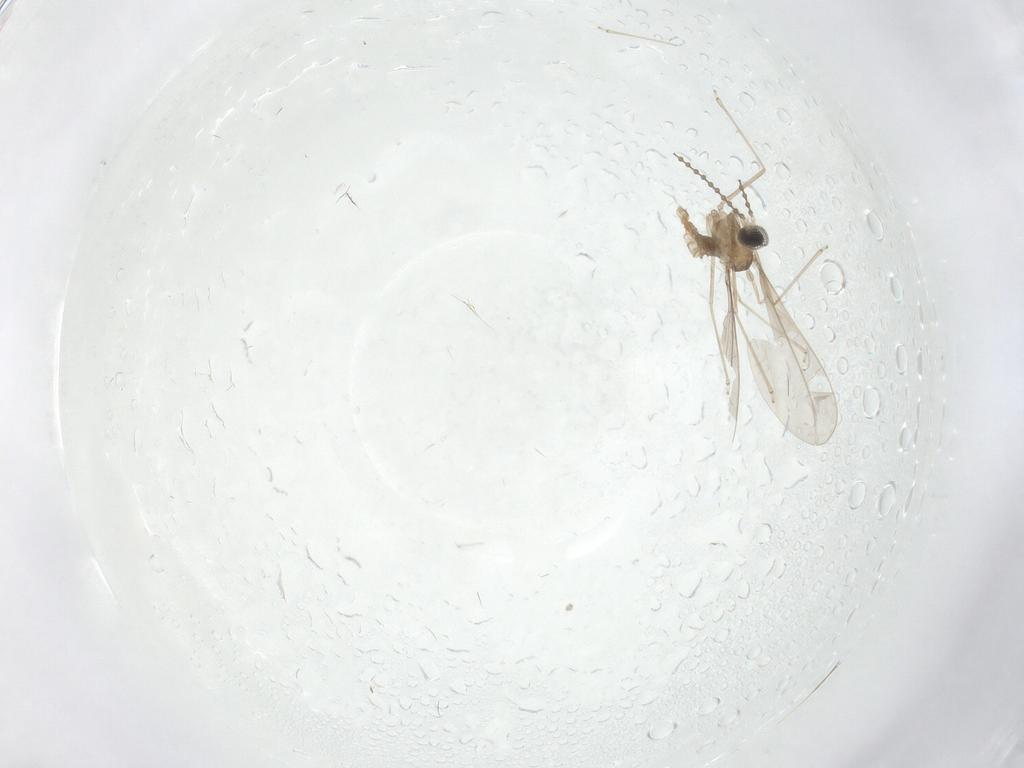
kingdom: Animalia
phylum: Arthropoda
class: Insecta
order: Diptera
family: Cecidomyiidae
